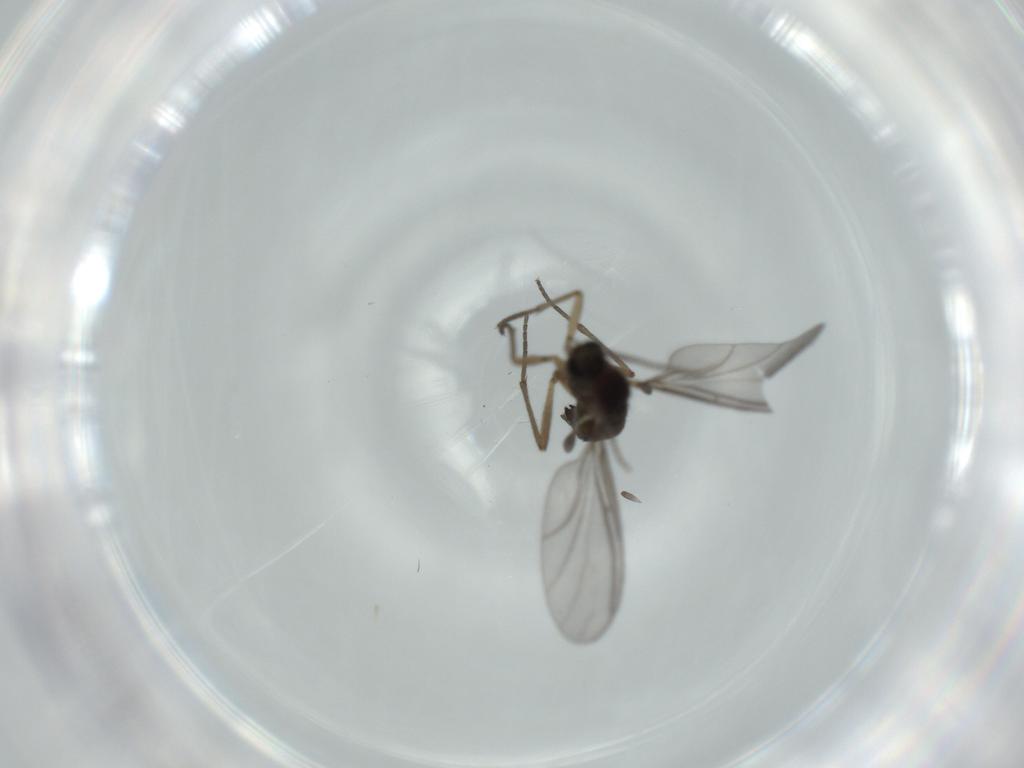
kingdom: Animalia
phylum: Arthropoda
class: Insecta
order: Diptera
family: Sciaridae
